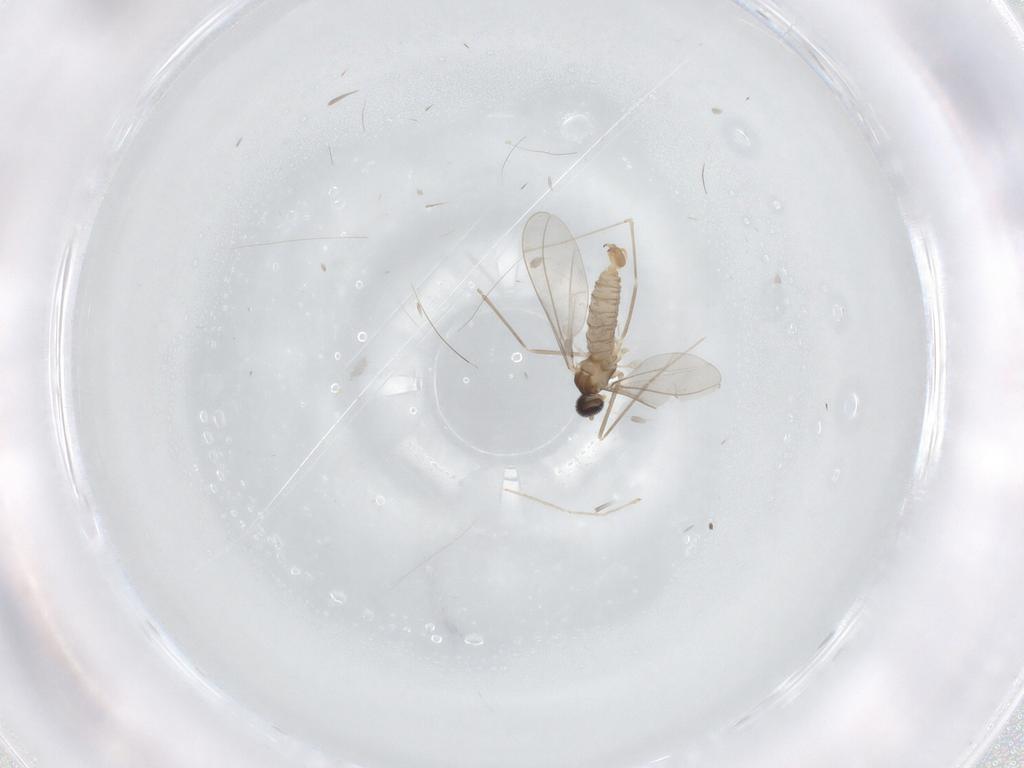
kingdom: Animalia
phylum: Arthropoda
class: Insecta
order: Diptera
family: Cecidomyiidae
